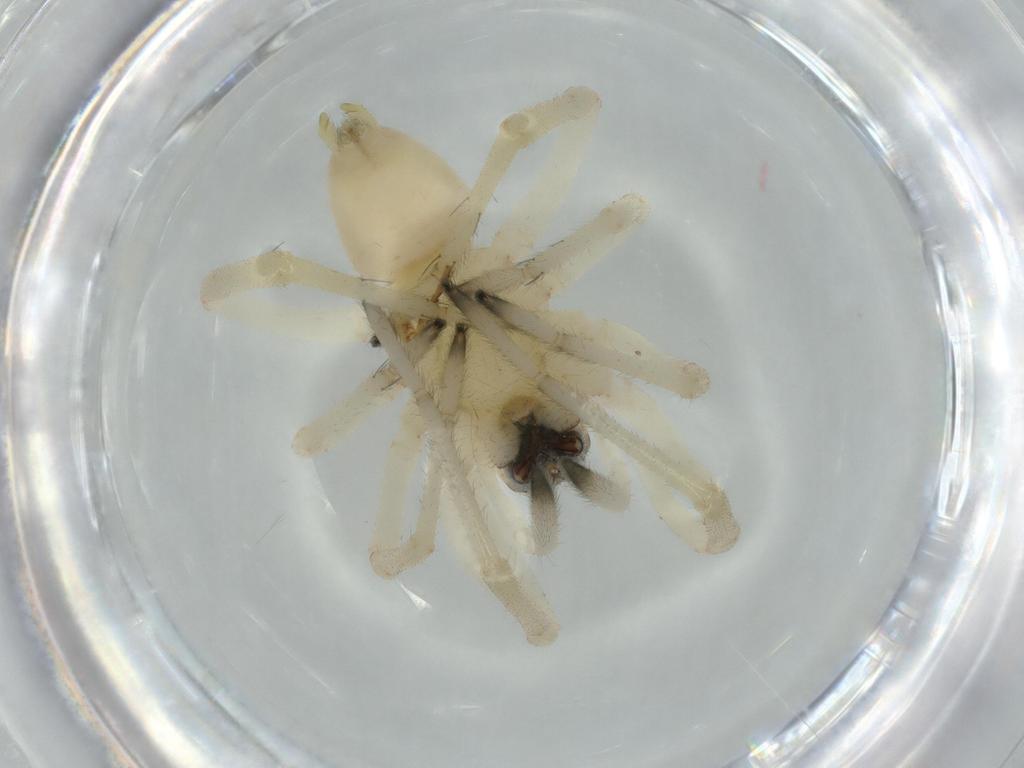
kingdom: Animalia
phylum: Arthropoda
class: Arachnida
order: Araneae
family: Cheiracanthiidae
